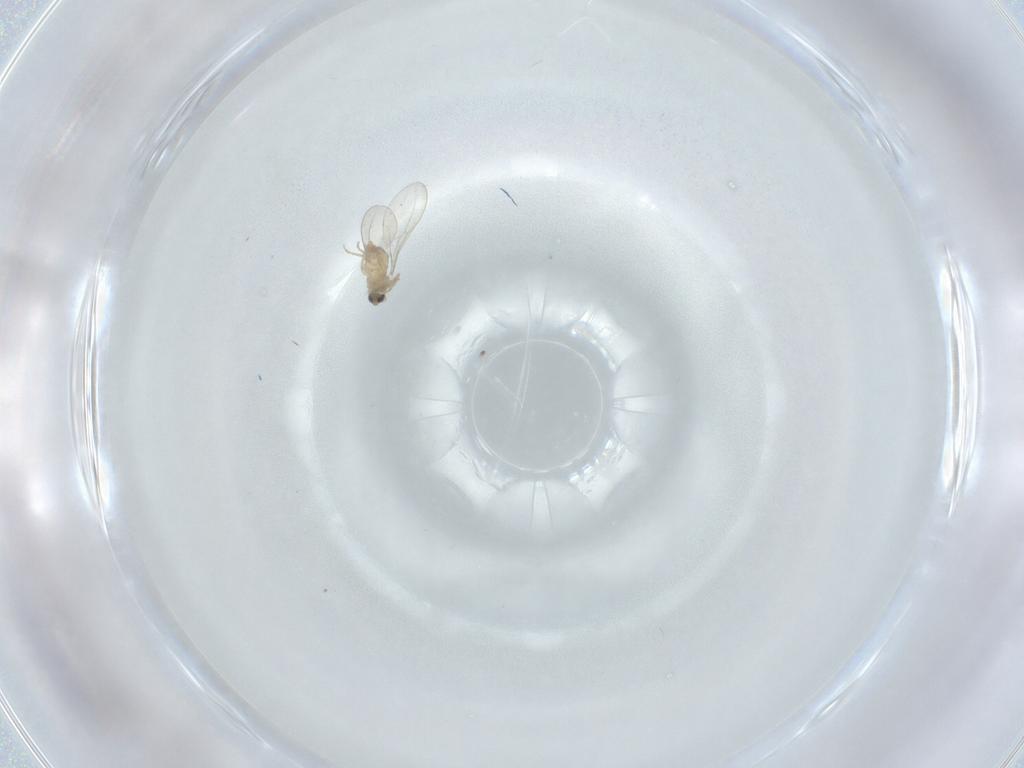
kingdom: Animalia
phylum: Arthropoda
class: Insecta
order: Diptera
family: Cecidomyiidae
